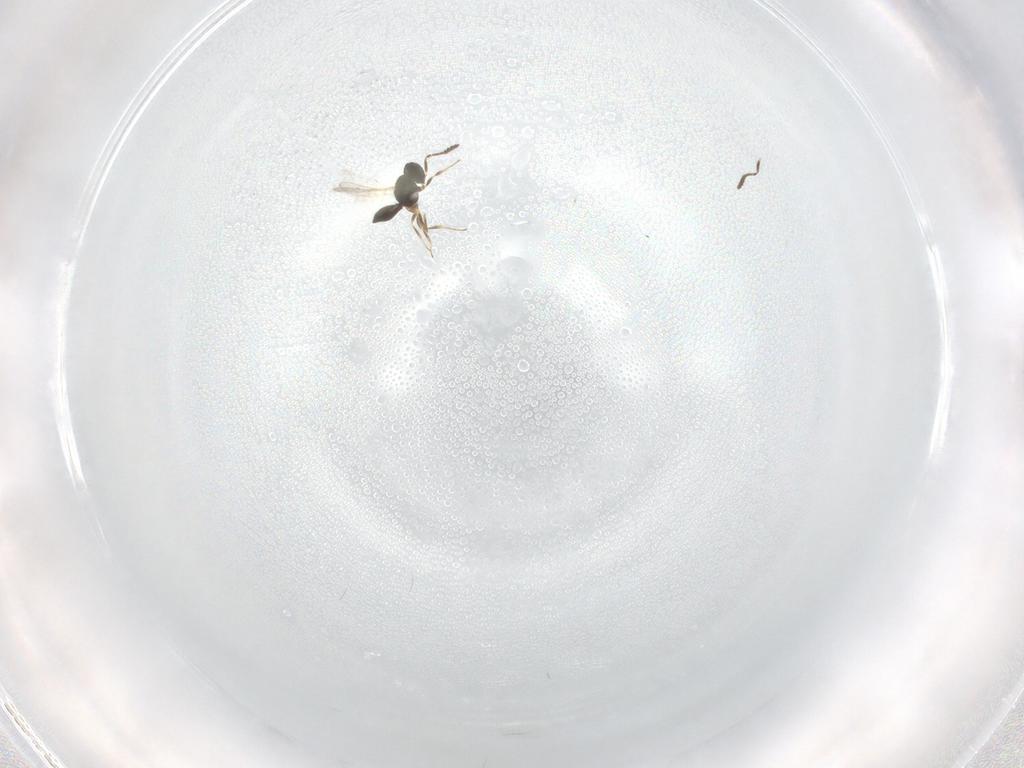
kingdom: Animalia
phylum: Arthropoda
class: Insecta
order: Hymenoptera
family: Scelionidae
